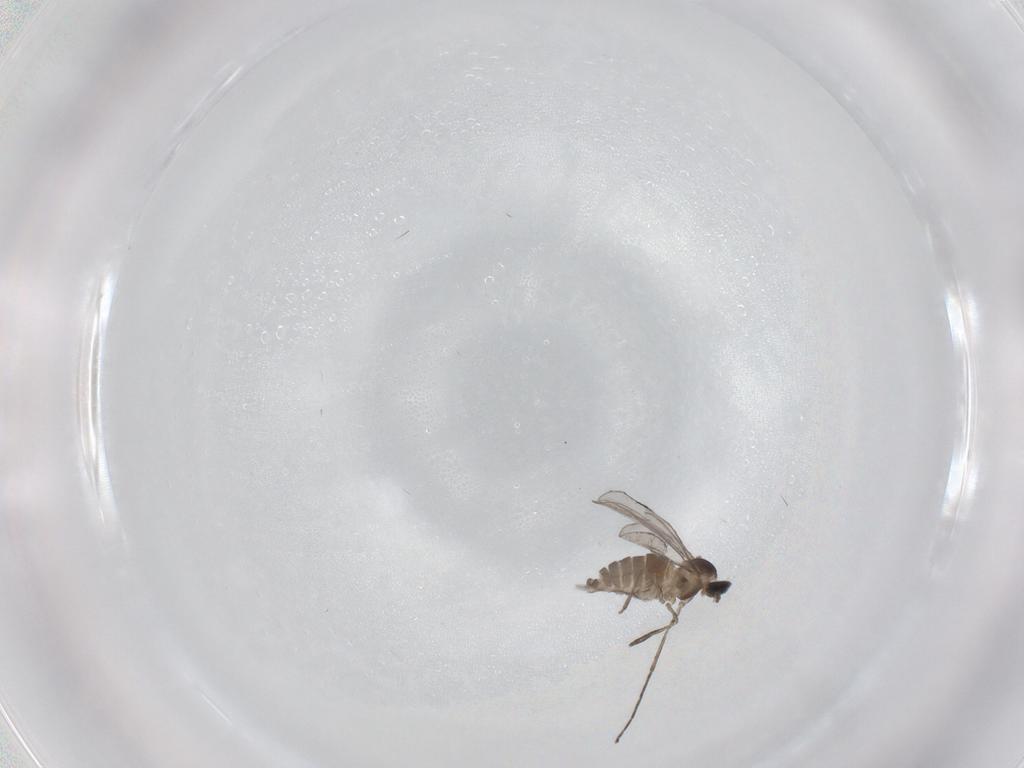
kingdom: Animalia
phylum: Arthropoda
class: Insecta
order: Diptera
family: Cecidomyiidae
